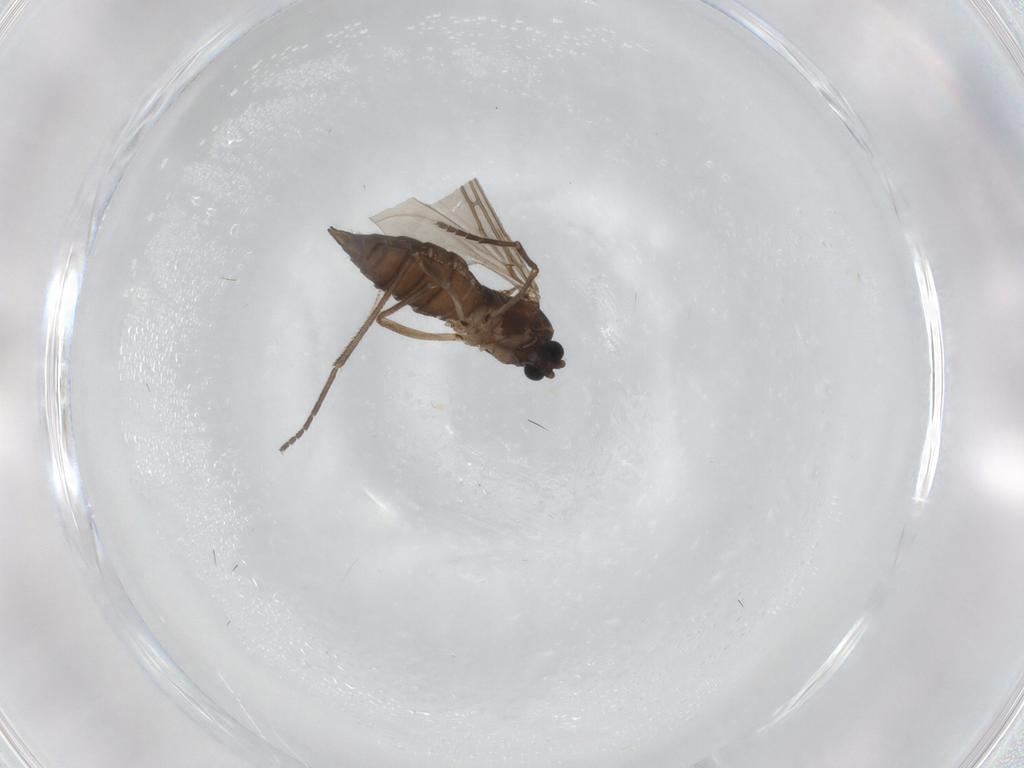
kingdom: Animalia
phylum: Arthropoda
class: Insecta
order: Diptera
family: Sciaridae
